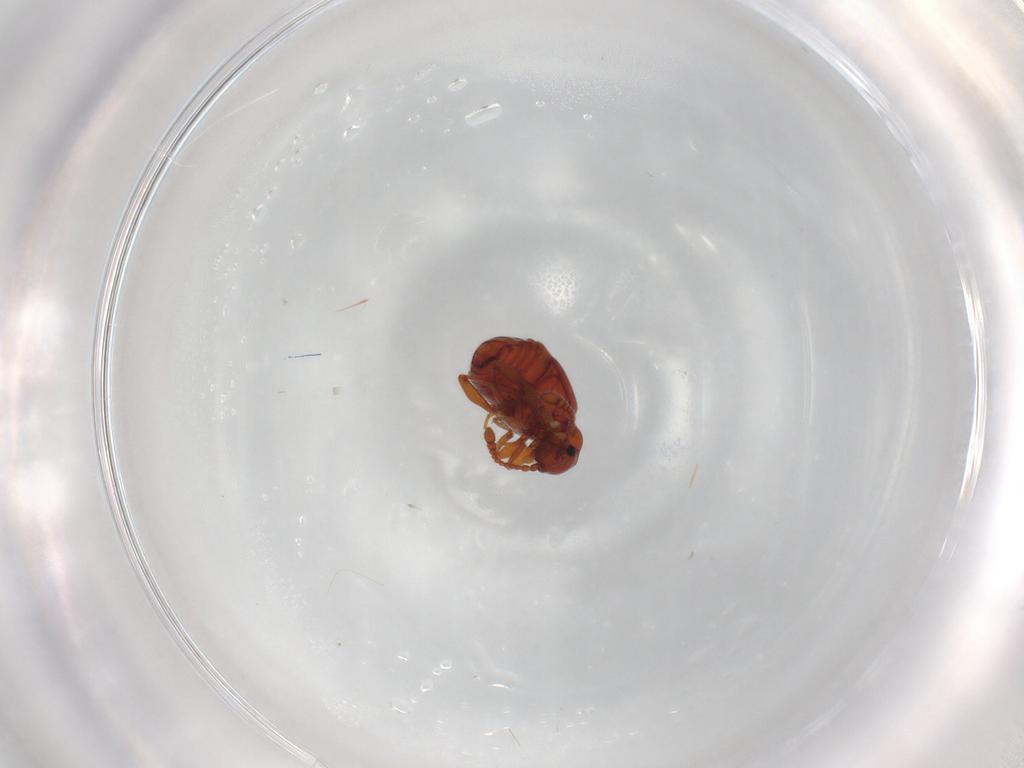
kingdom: Animalia
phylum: Arthropoda
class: Insecta
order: Coleoptera
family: Staphylinidae
